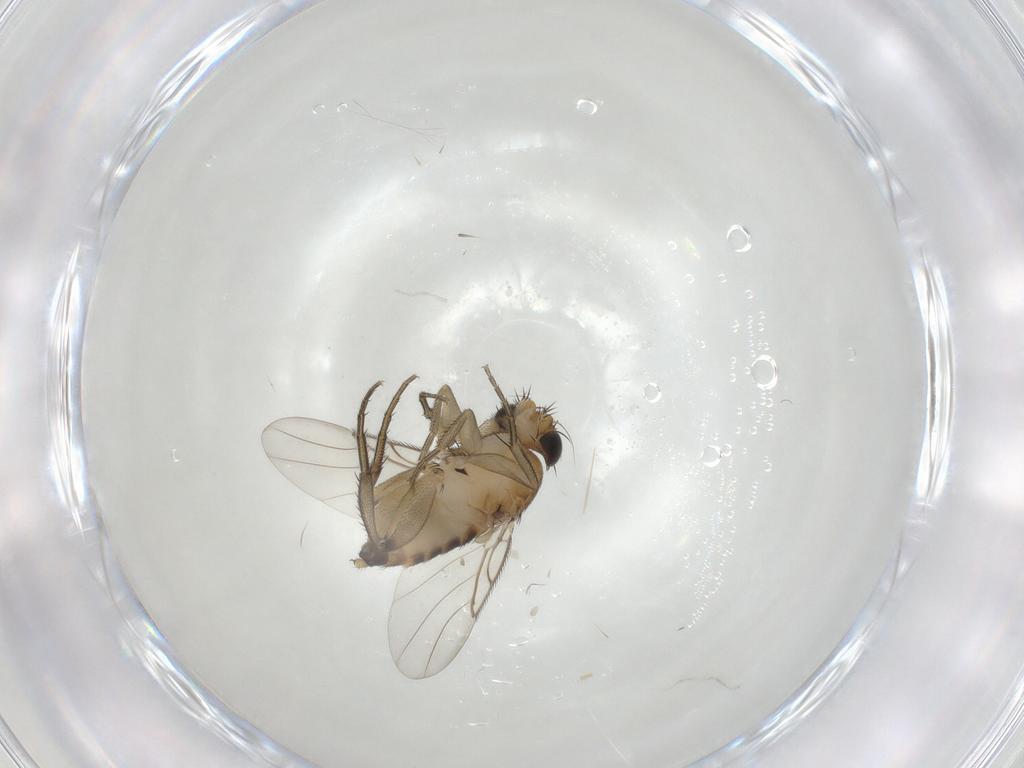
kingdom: Animalia
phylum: Arthropoda
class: Insecta
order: Diptera
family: Phoridae
